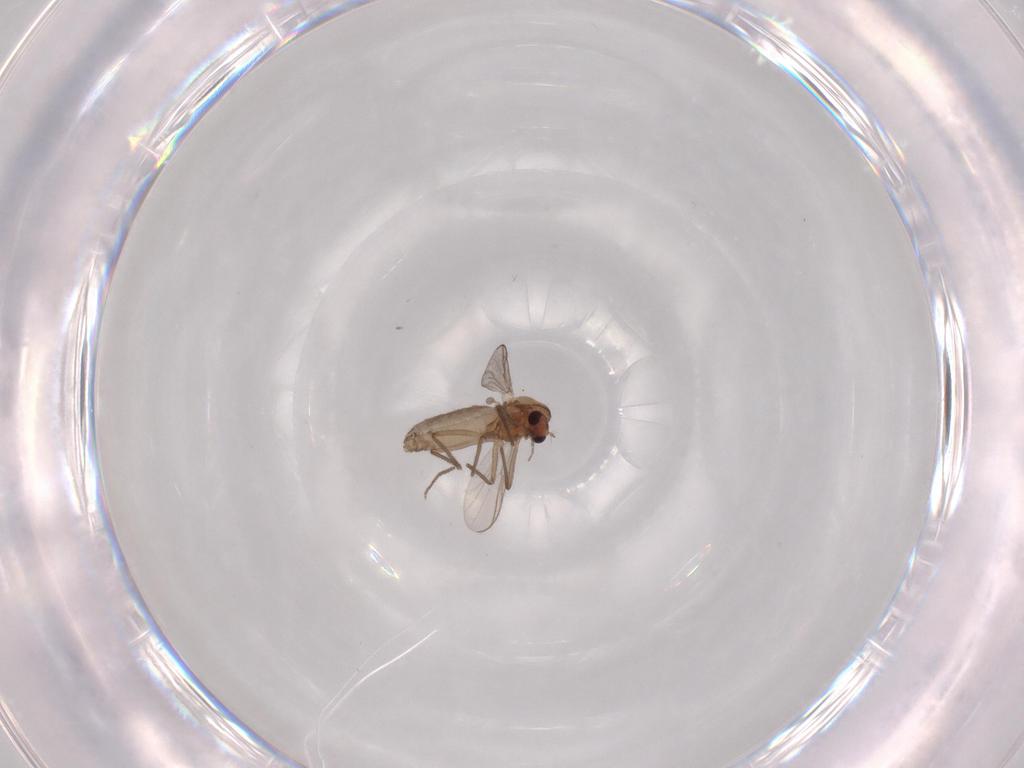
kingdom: Animalia
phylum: Arthropoda
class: Insecta
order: Diptera
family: Chironomidae
